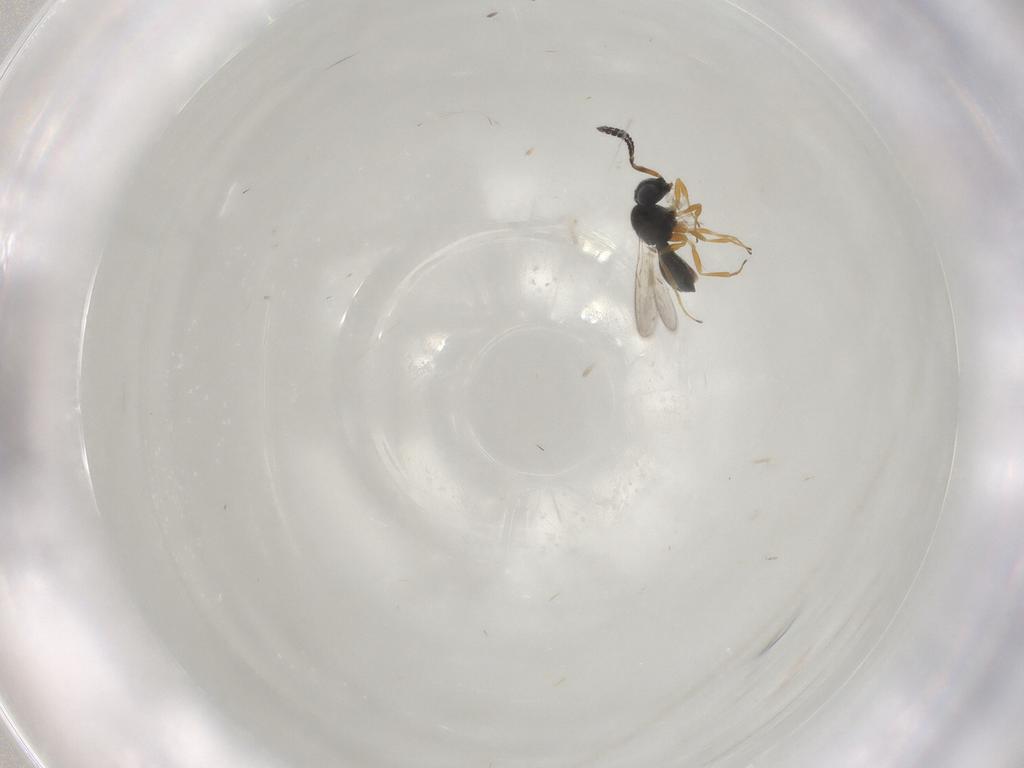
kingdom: Animalia
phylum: Arthropoda
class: Insecta
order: Hymenoptera
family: Scelionidae
